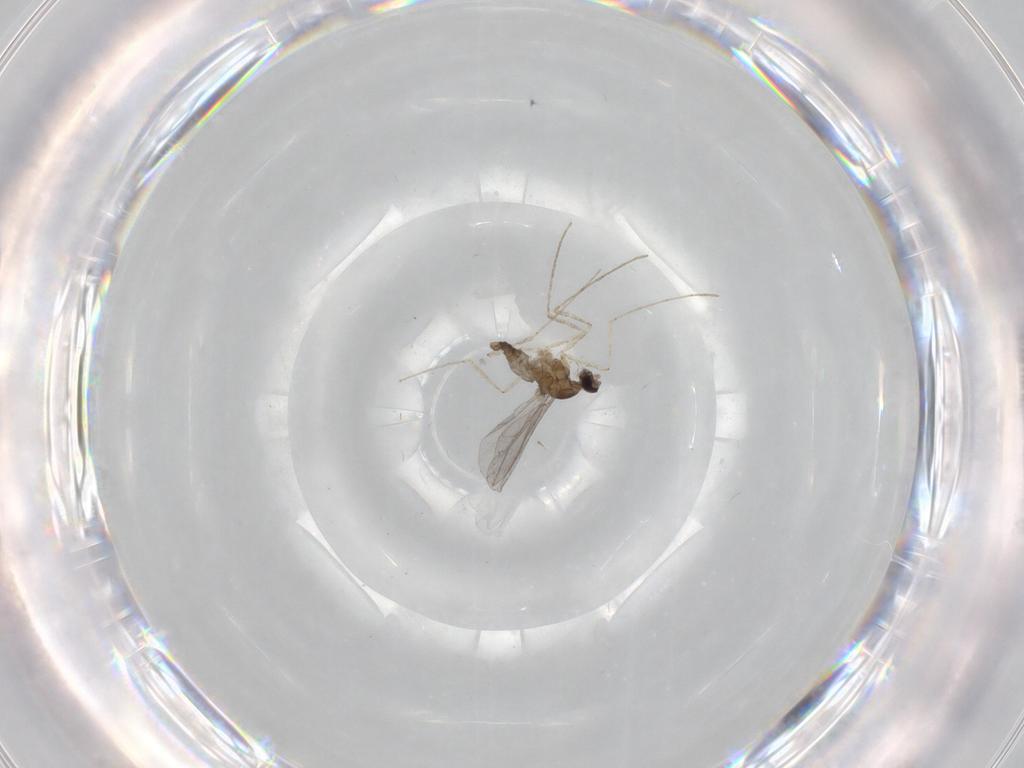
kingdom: Animalia
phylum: Arthropoda
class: Insecta
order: Diptera
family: Cecidomyiidae
